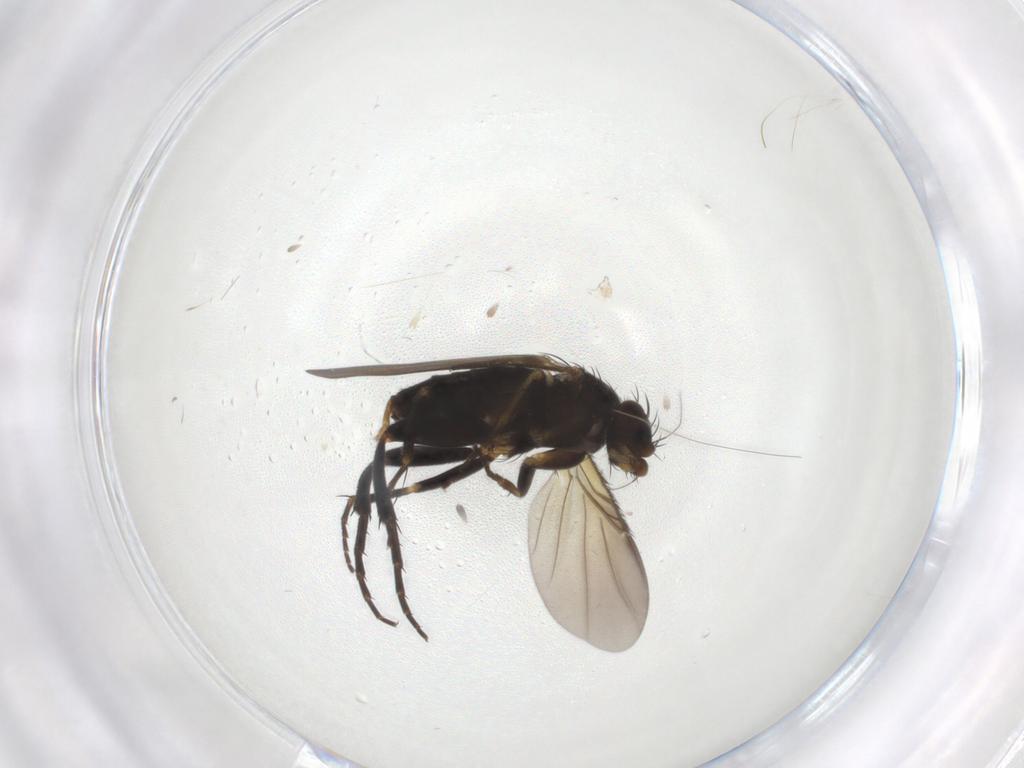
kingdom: Animalia
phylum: Arthropoda
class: Insecta
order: Diptera
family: Phoridae
